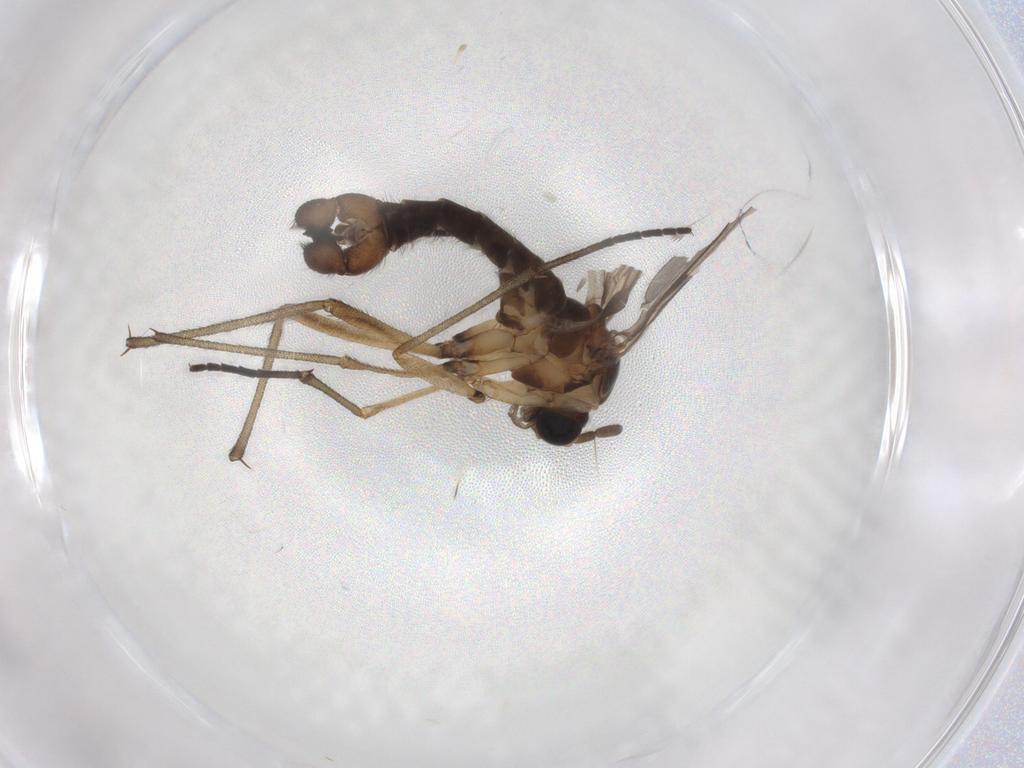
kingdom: Animalia
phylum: Arthropoda
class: Insecta
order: Diptera
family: Sciaridae
